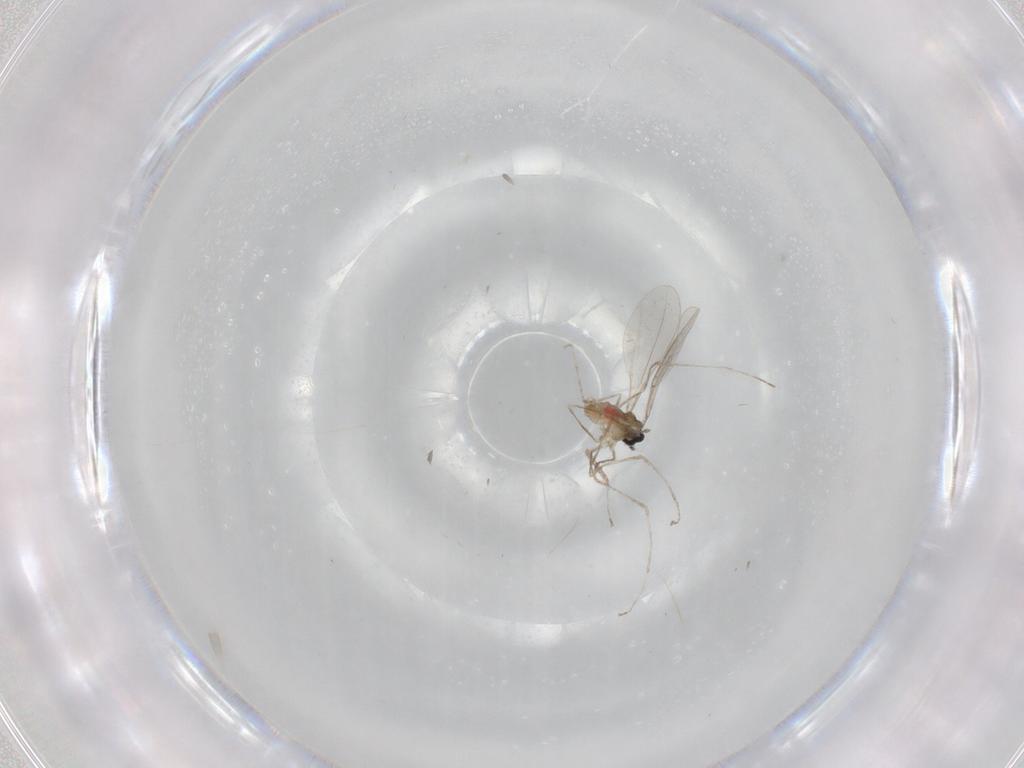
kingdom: Animalia
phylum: Arthropoda
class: Insecta
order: Diptera
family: Cecidomyiidae
